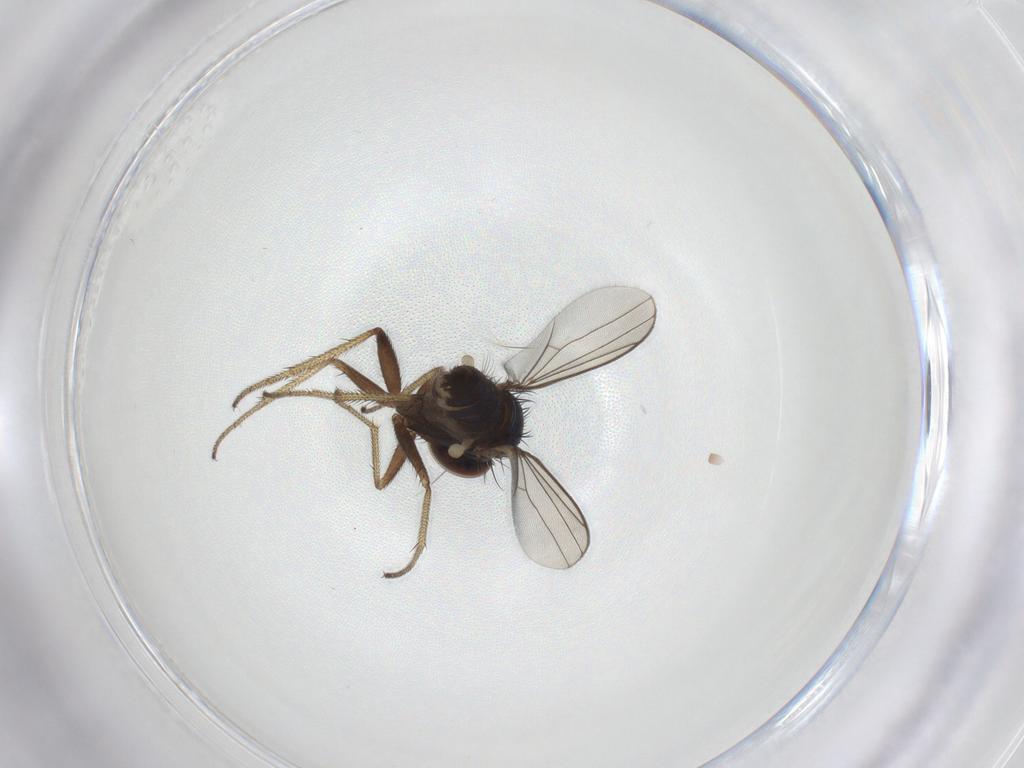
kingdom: Animalia
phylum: Arthropoda
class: Insecta
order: Diptera
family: Dolichopodidae
